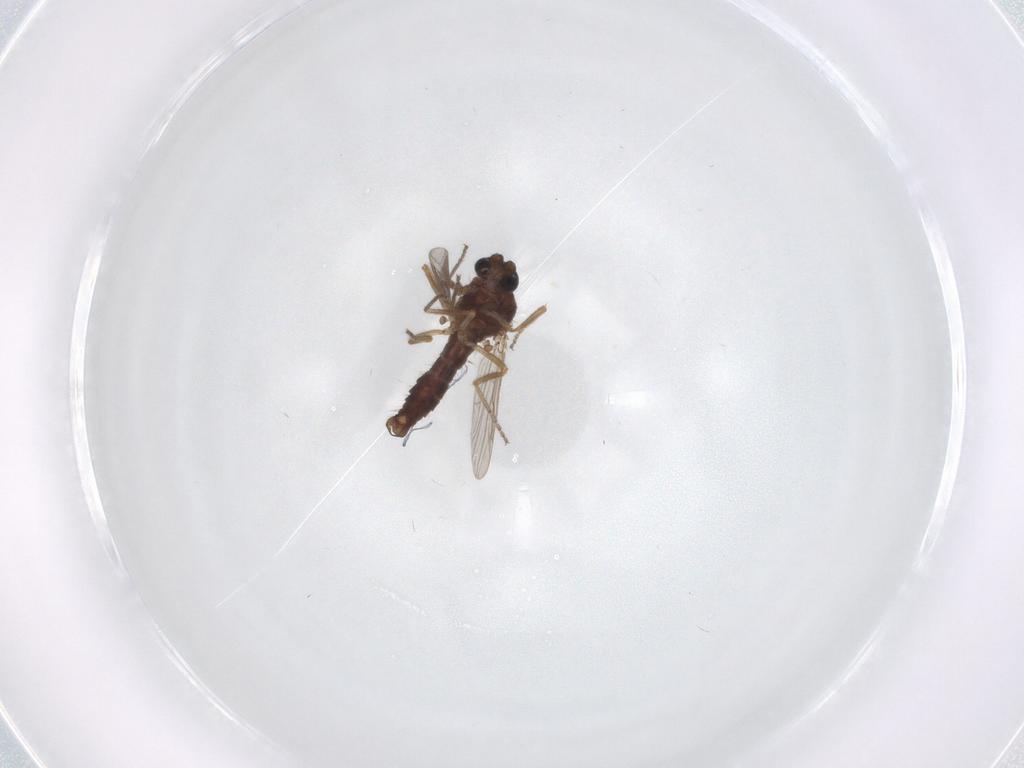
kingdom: Animalia
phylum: Arthropoda
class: Insecta
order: Diptera
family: Ceratopogonidae
